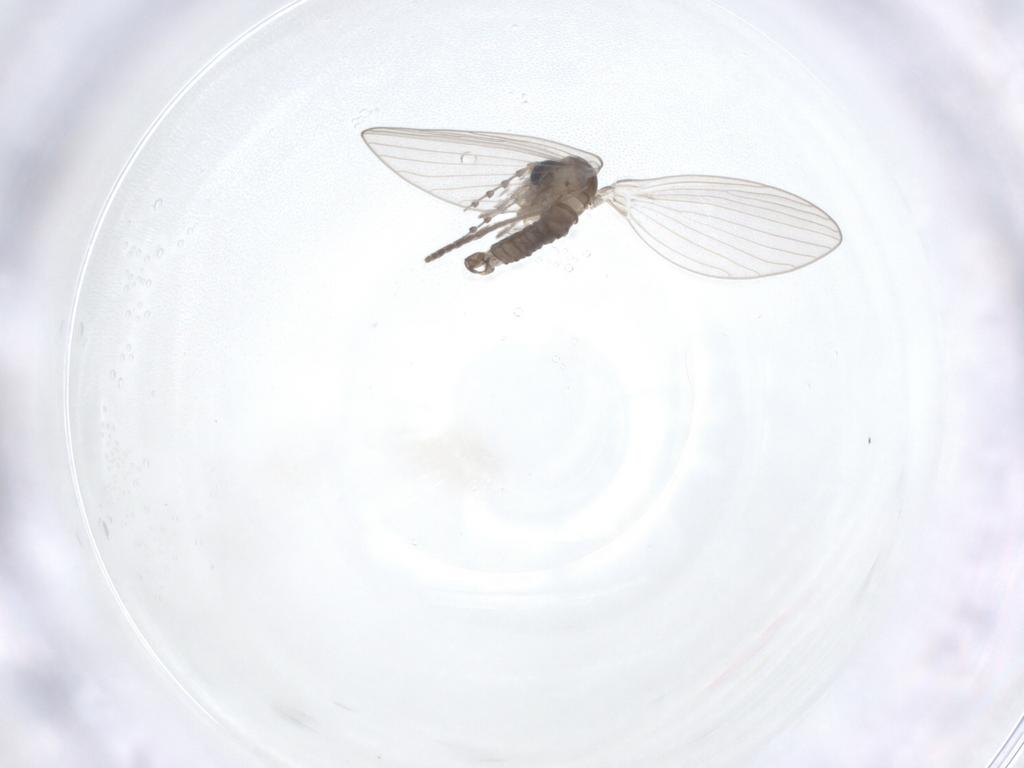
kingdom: Animalia
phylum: Arthropoda
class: Insecta
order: Diptera
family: Psychodidae
